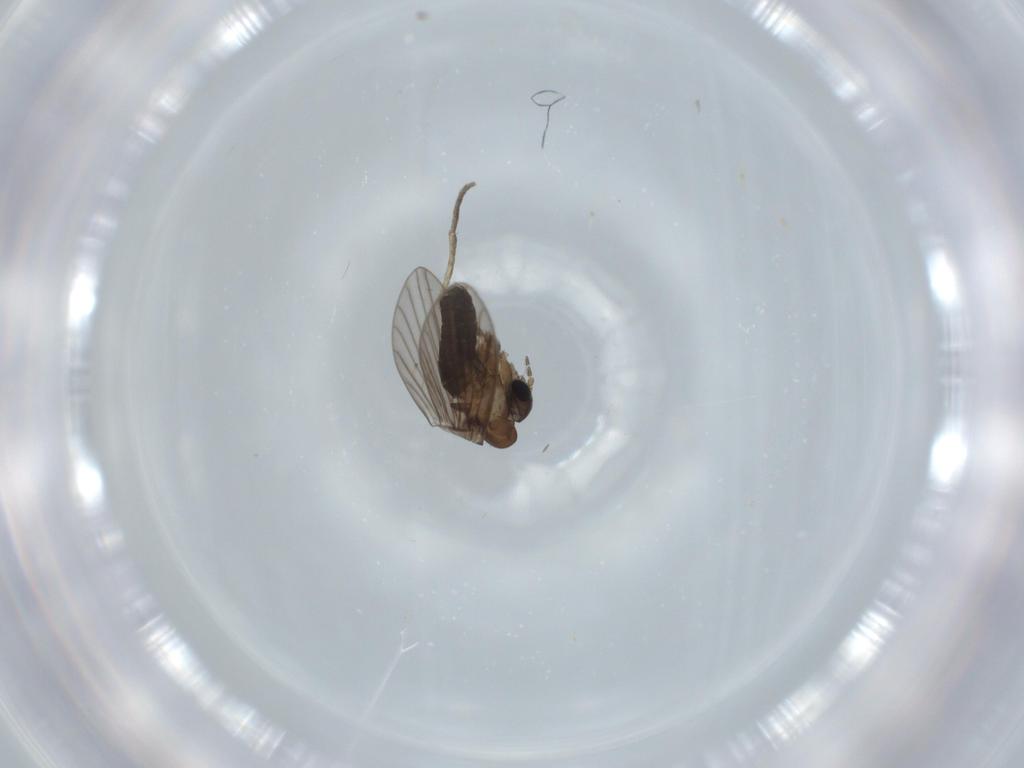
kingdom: Animalia
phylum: Arthropoda
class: Insecta
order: Diptera
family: Psychodidae
